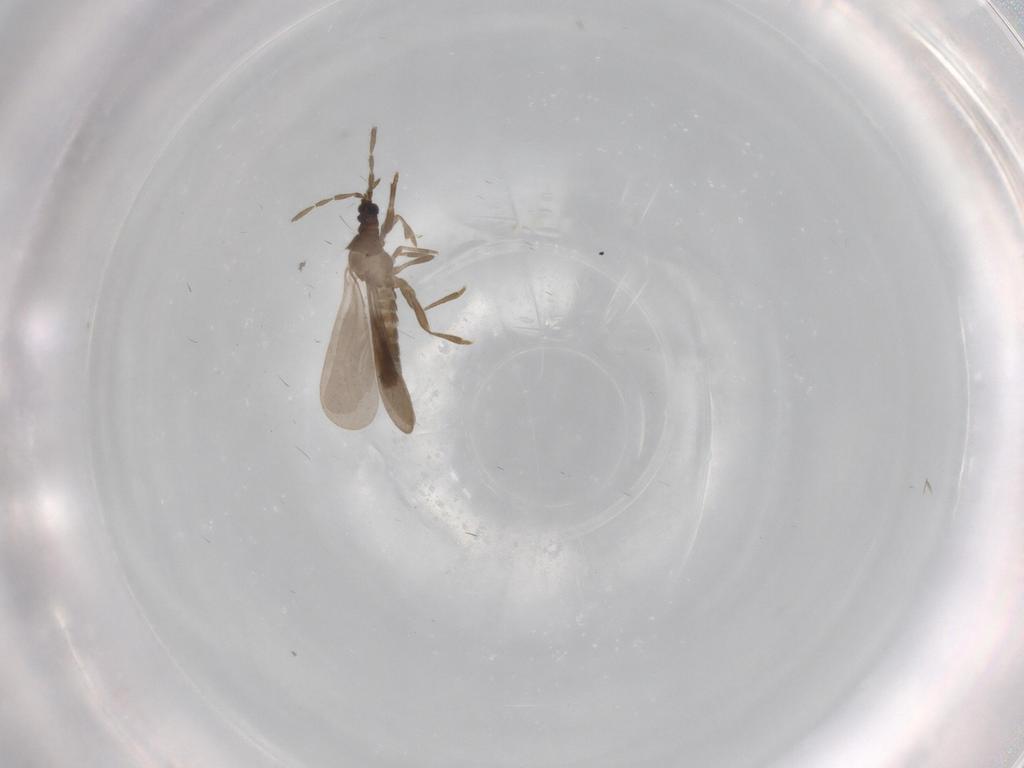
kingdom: Animalia
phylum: Arthropoda
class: Insecta
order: Hemiptera
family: Enicocephalidae
